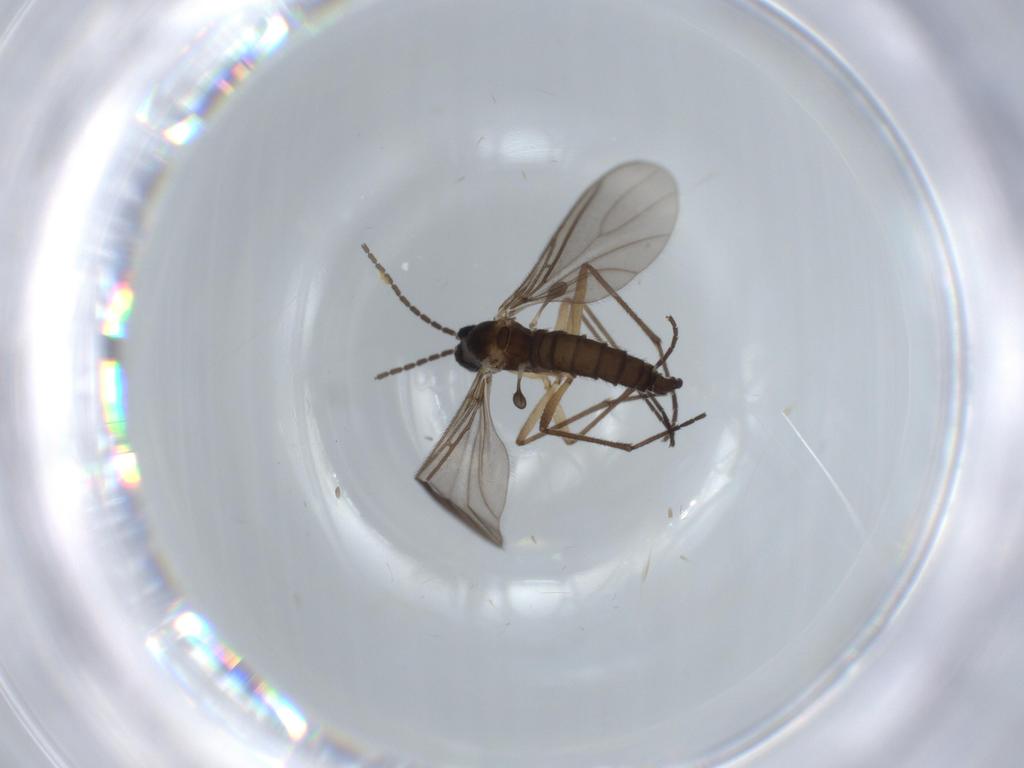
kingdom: Animalia
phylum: Arthropoda
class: Insecta
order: Diptera
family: Sciaridae
